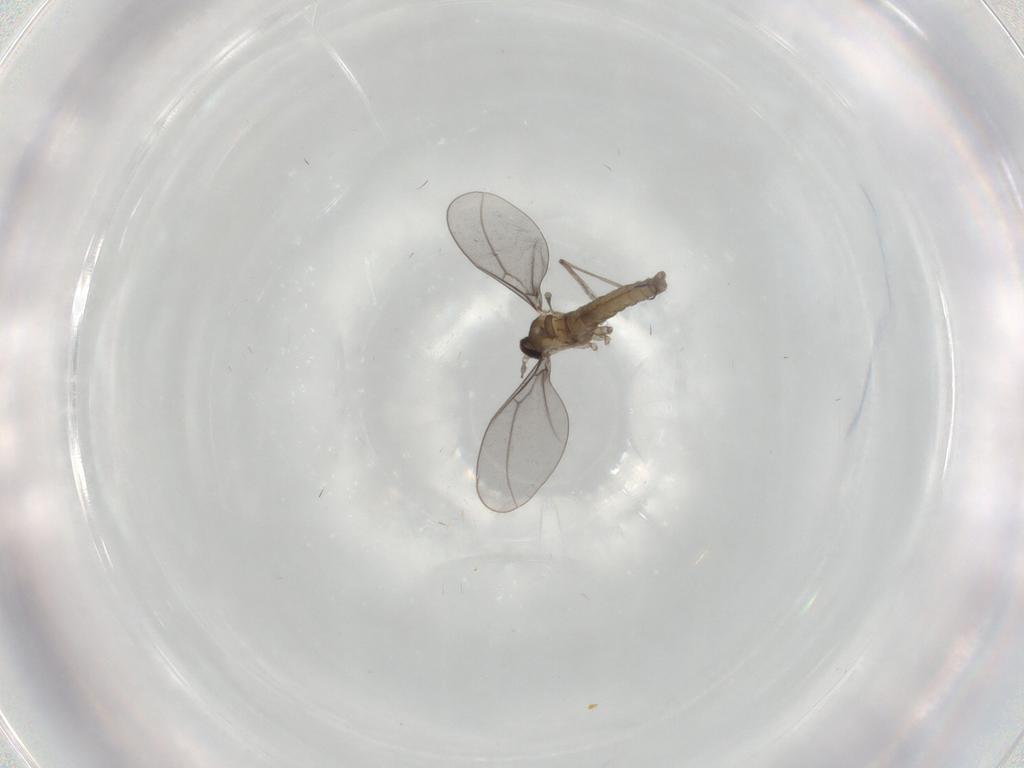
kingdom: Animalia
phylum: Arthropoda
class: Insecta
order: Diptera
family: Cecidomyiidae
